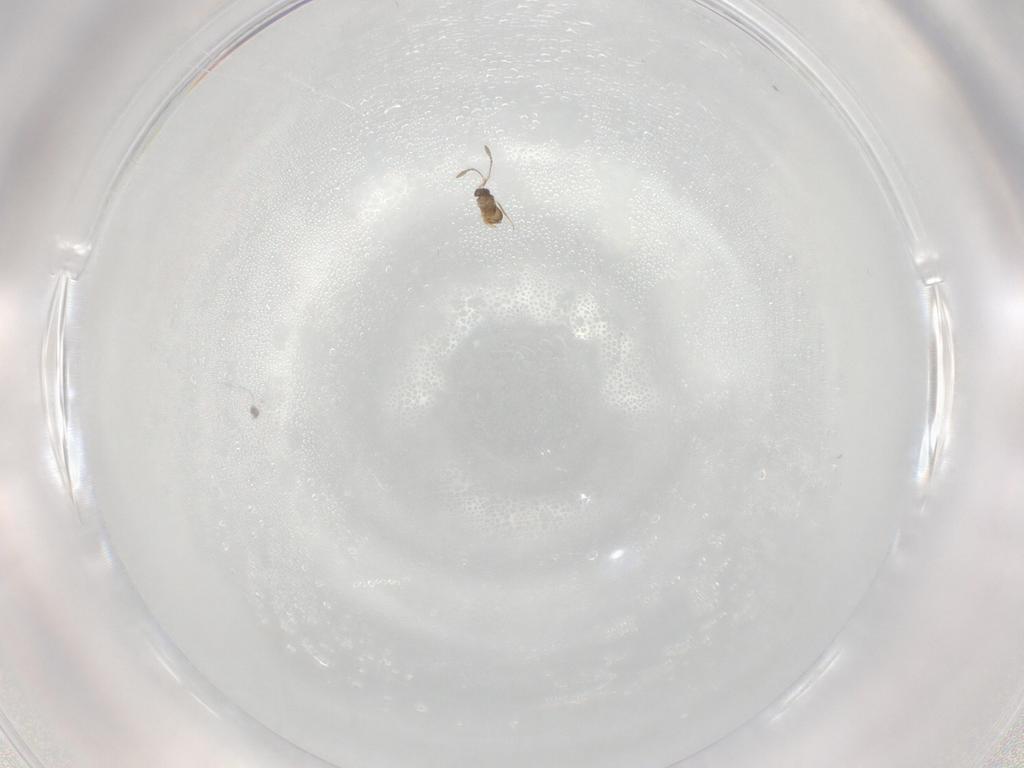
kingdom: Animalia
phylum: Arthropoda
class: Insecta
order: Hymenoptera
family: Mymaridae
